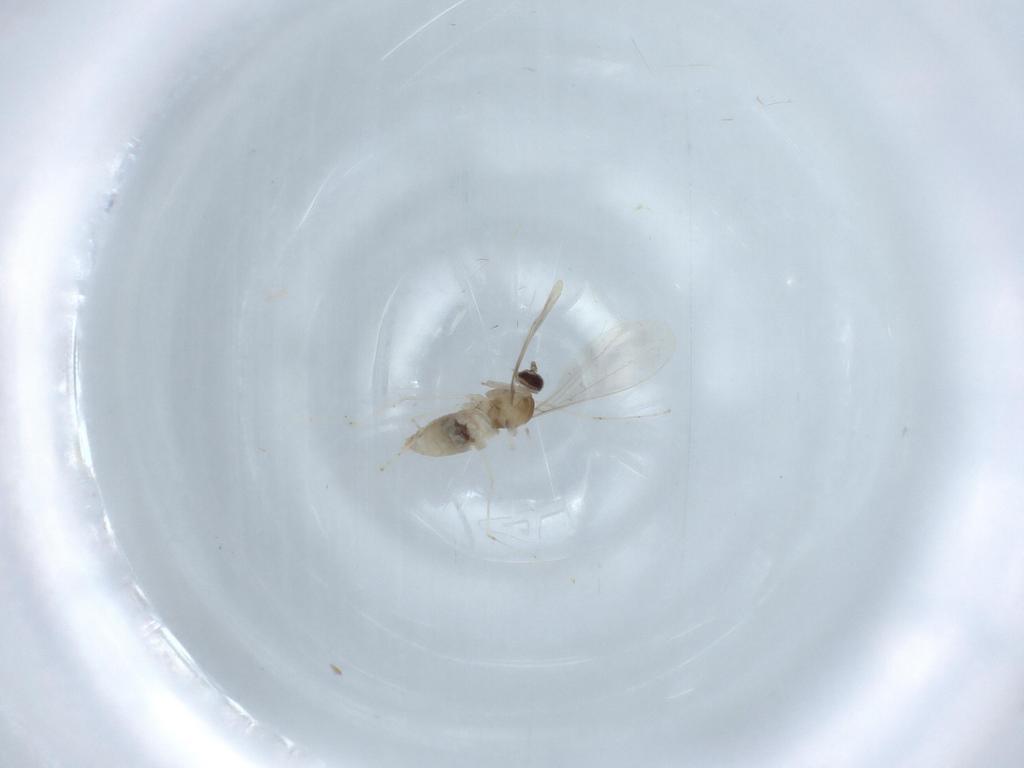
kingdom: Animalia
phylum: Arthropoda
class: Insecta
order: Diptera
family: Cecidomyiidae
